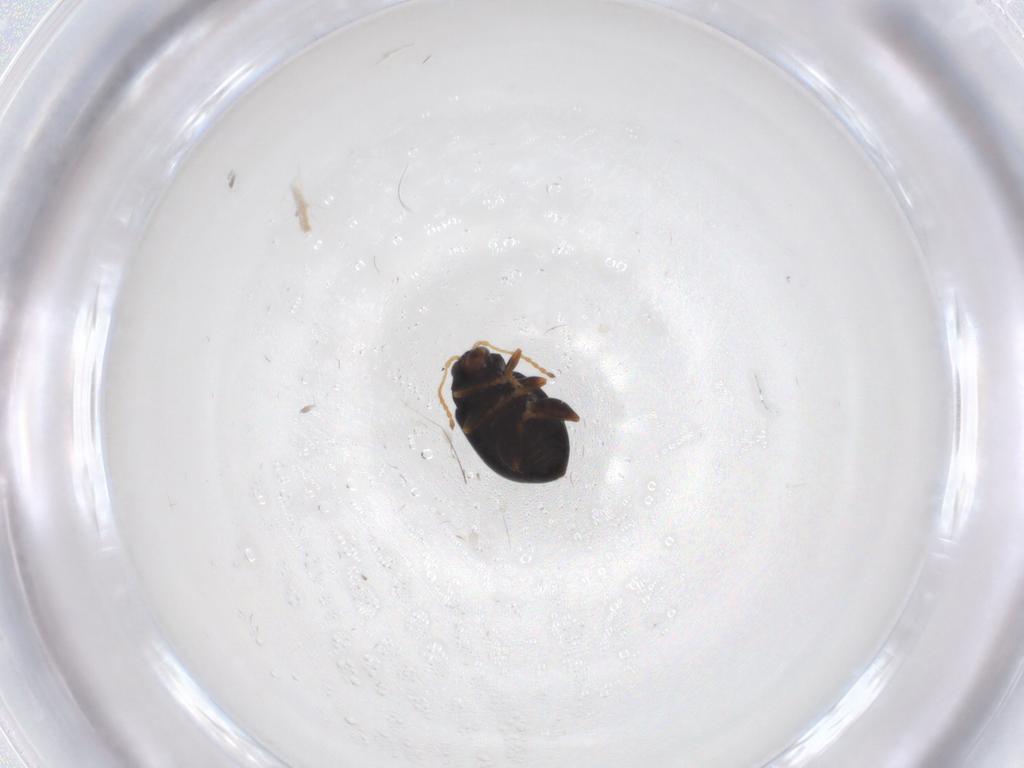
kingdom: Animalia
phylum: Arthropoda
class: Insecta
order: Coleoptera
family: Chrysomelidae
